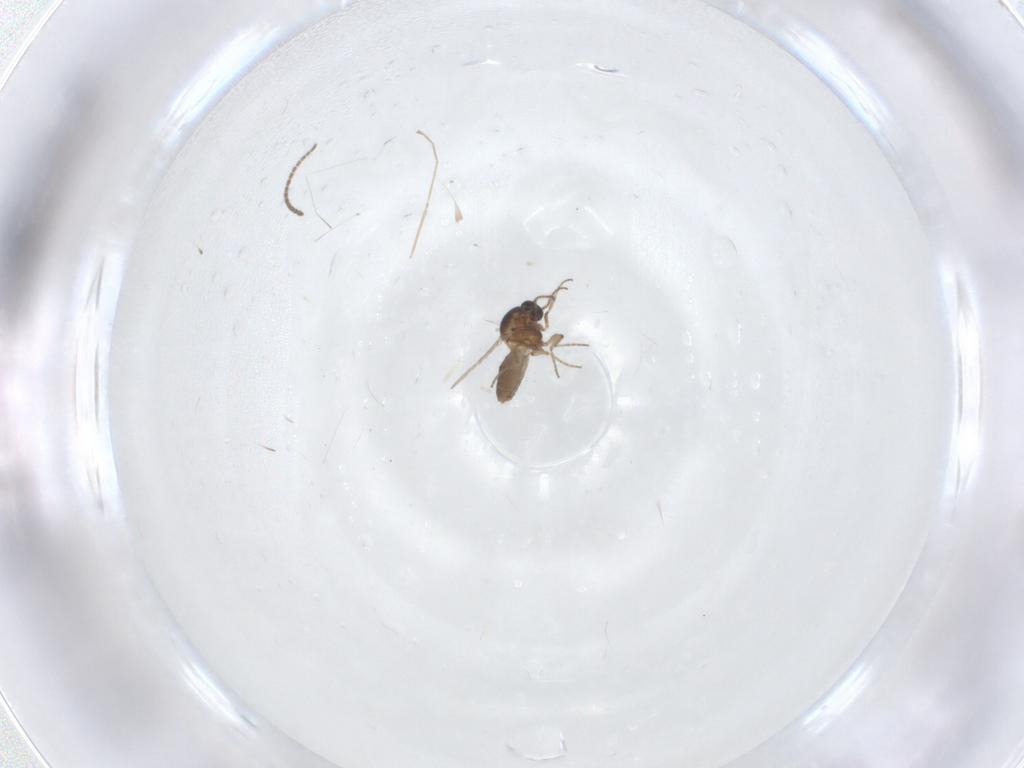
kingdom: Animalia
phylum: Arthropoda
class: Insecta
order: Diptera
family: Ceratopogonidae
